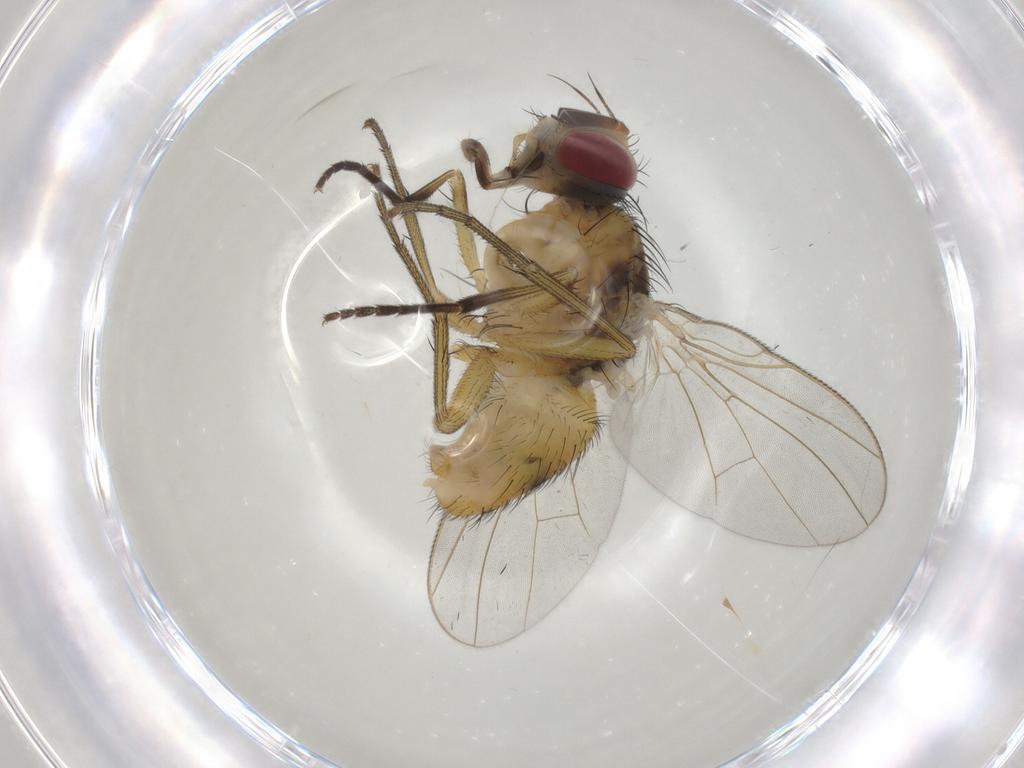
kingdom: Animalia
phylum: Arthropoda
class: Insecta
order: Diptera
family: Muscidae
